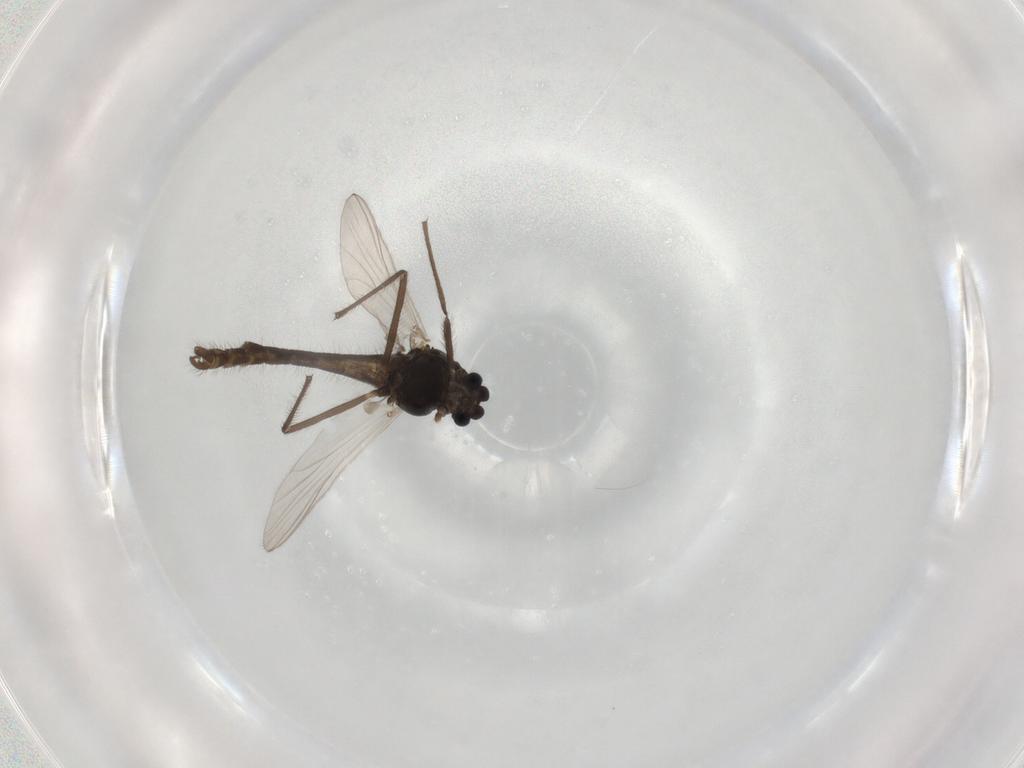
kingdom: Animalia
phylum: Arthropoda
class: Insecta
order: Diptera
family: Chironomidae
